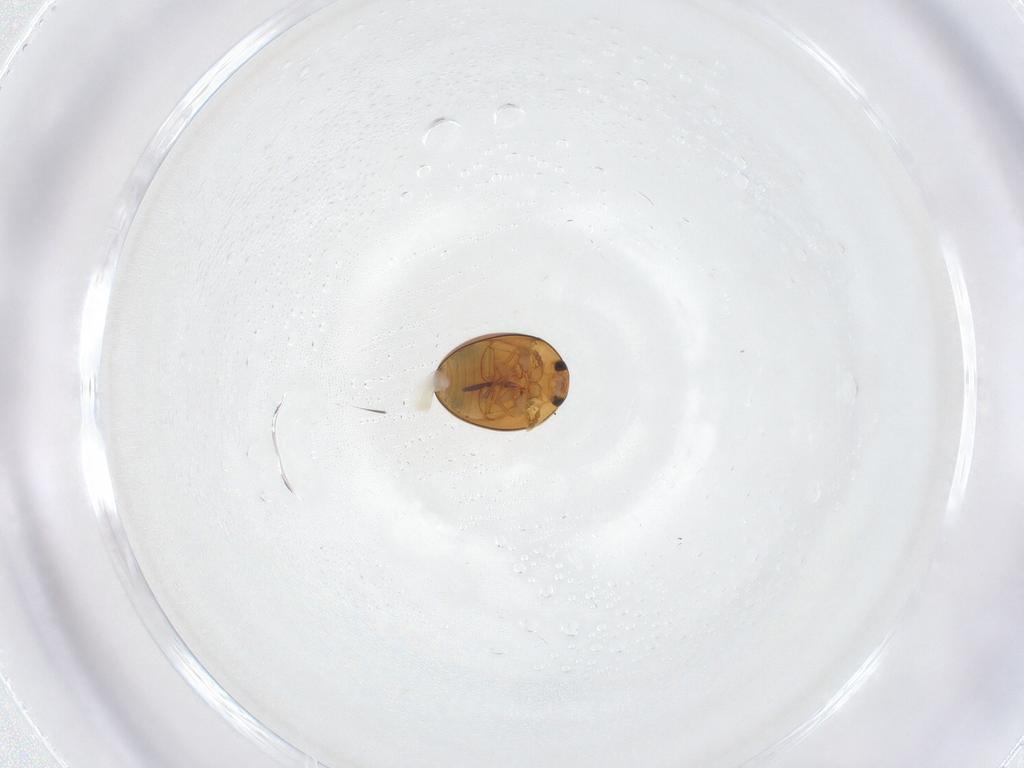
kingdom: Animalia
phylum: Arthropoda
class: Insecta
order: Coleoptera
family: Phalacridae
